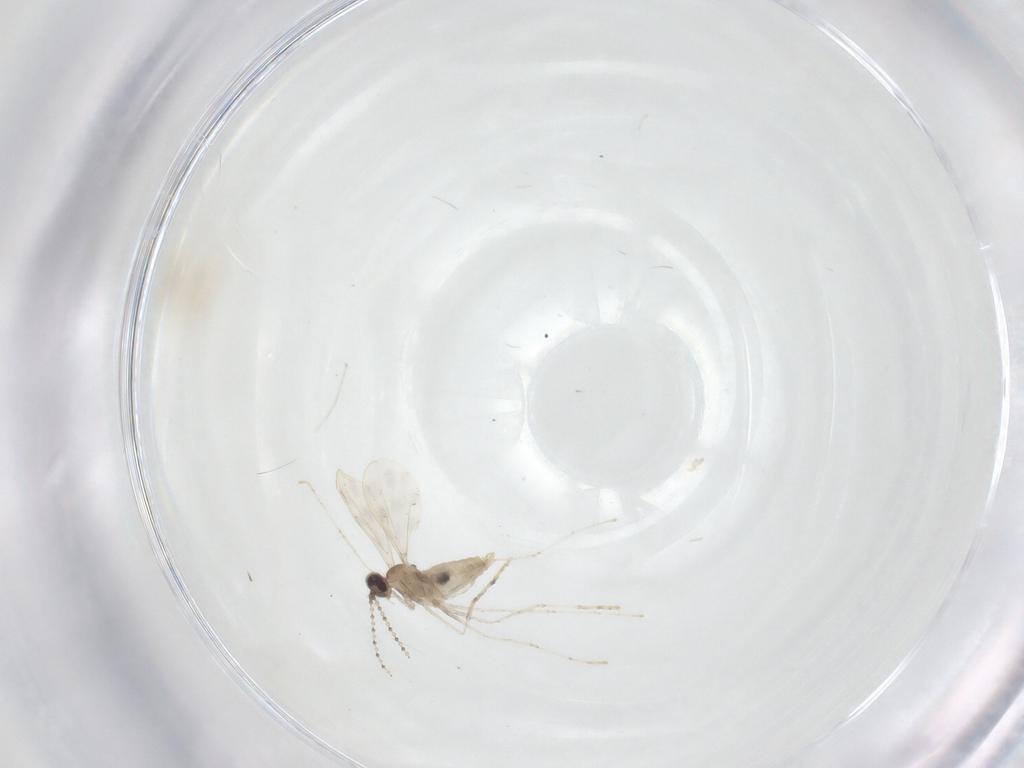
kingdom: Animalia
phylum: Arthropoda
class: Insecta
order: Diptera
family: Cecidomyiidae
